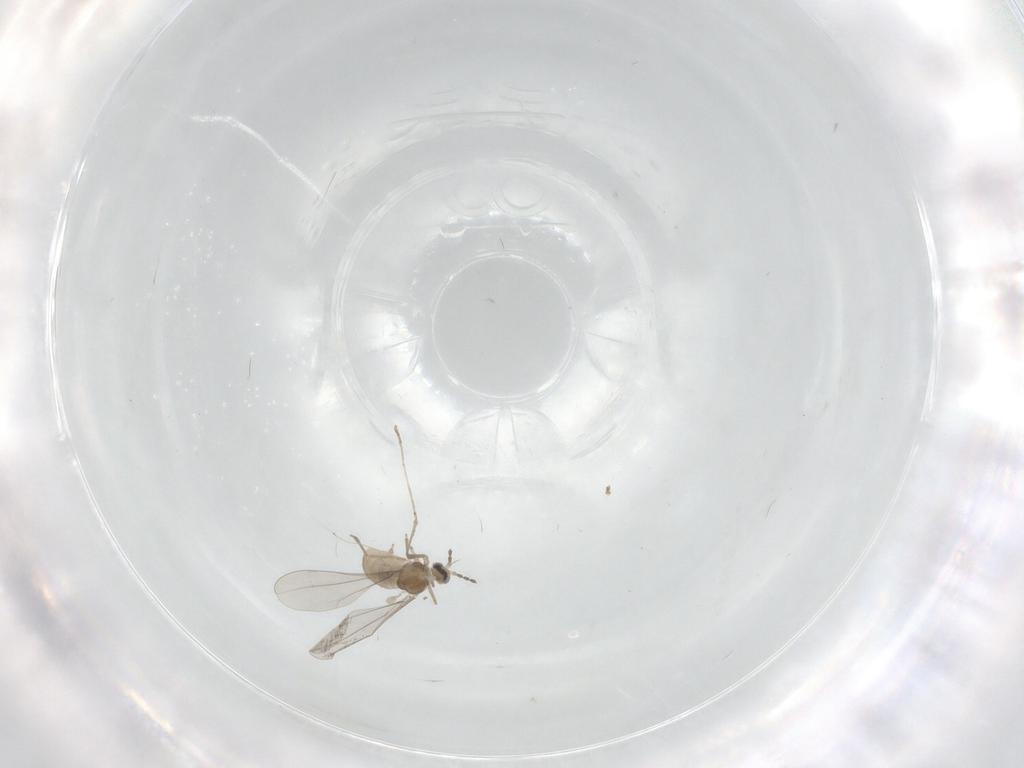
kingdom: Animalia
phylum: Arthropoda
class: Insecta
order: Diptera
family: Cecidomyiidae
